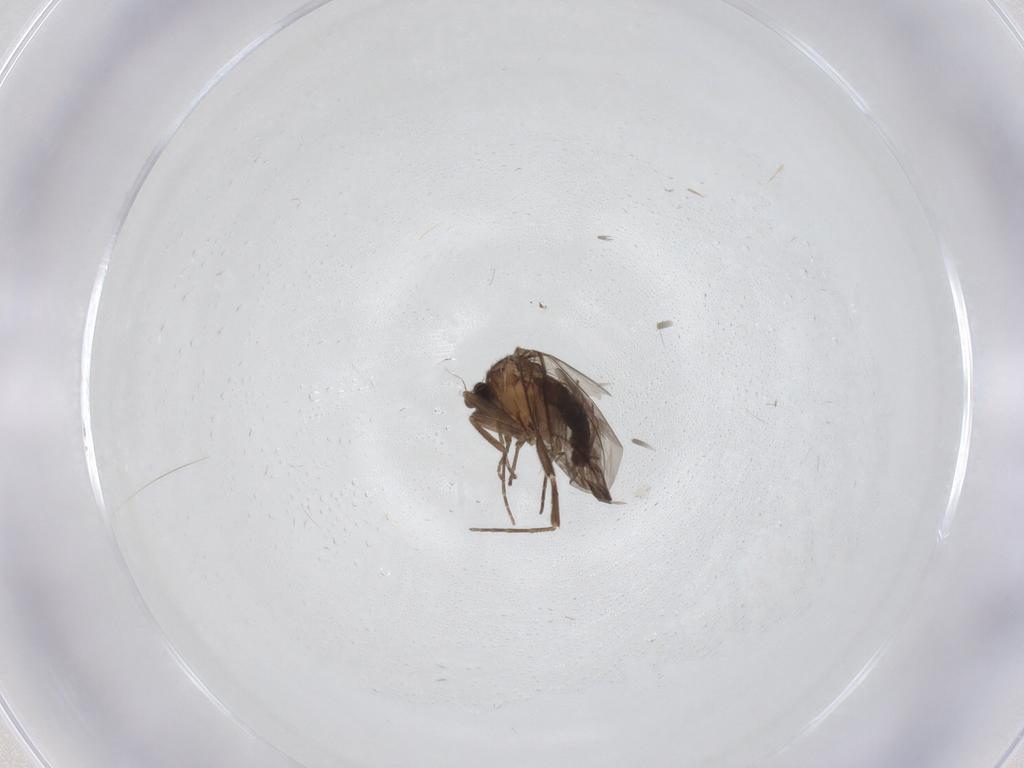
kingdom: Animalia
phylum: Arthropoda
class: Insecta
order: Diptera
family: Phoridae
